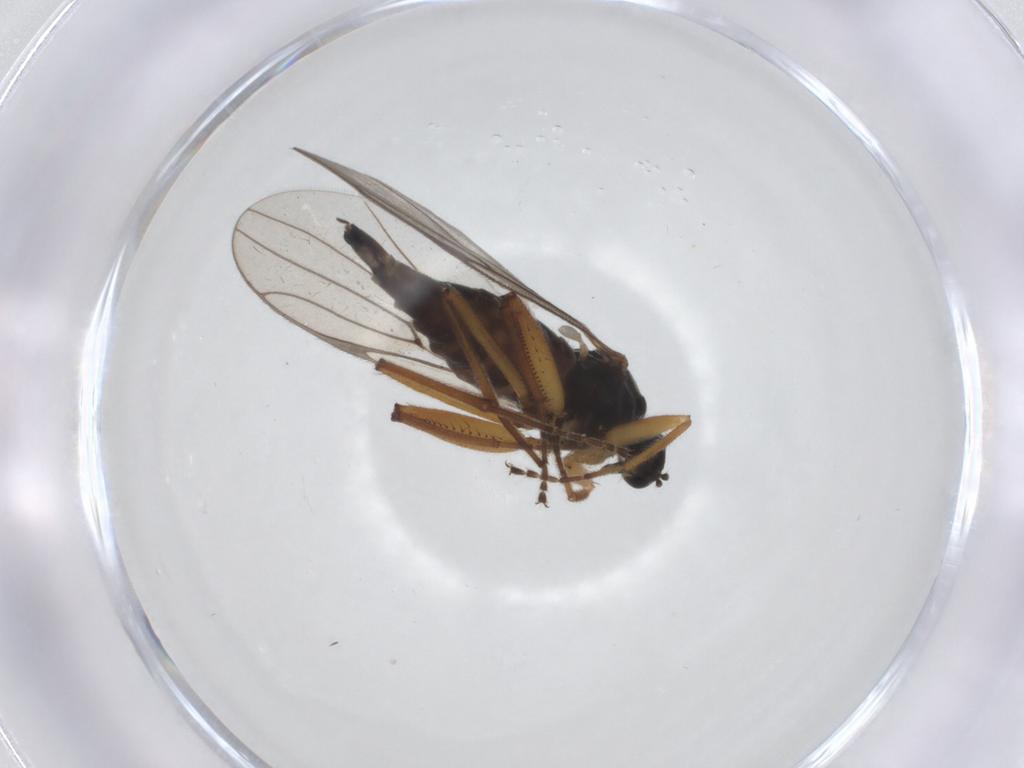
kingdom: Animalia
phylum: Arthropoda
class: Insecta
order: Diptera
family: Hybotidae
